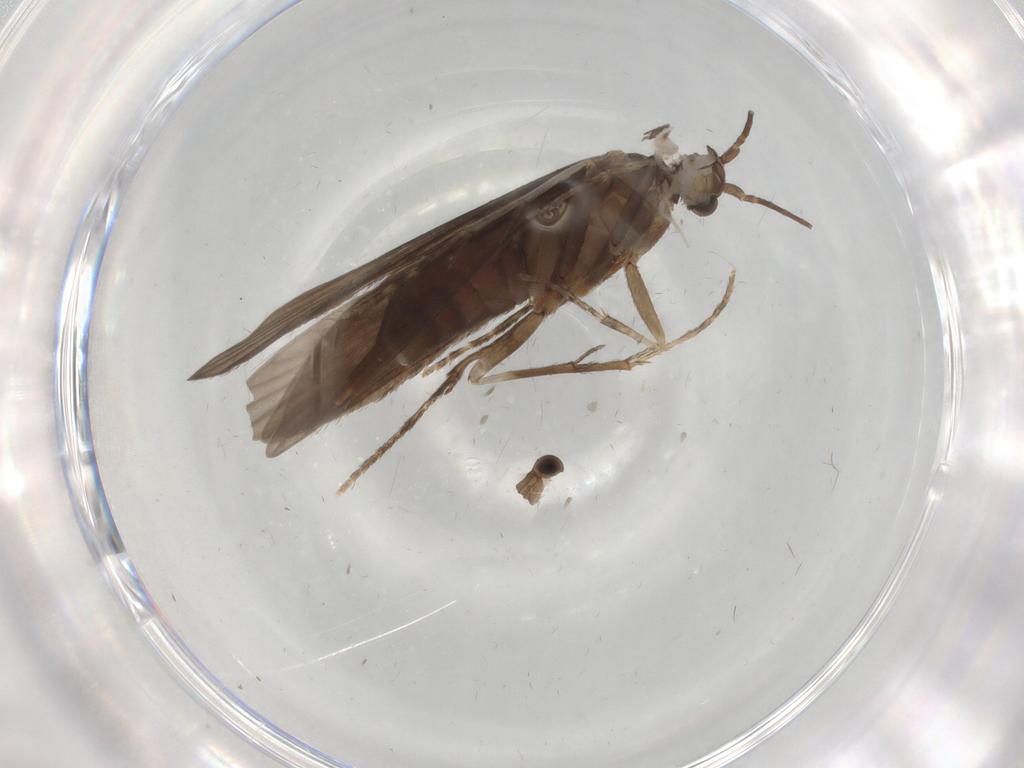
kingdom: Animalia
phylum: Arthropoda
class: Insecta
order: Trichoptera
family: Xiphocentronidae
